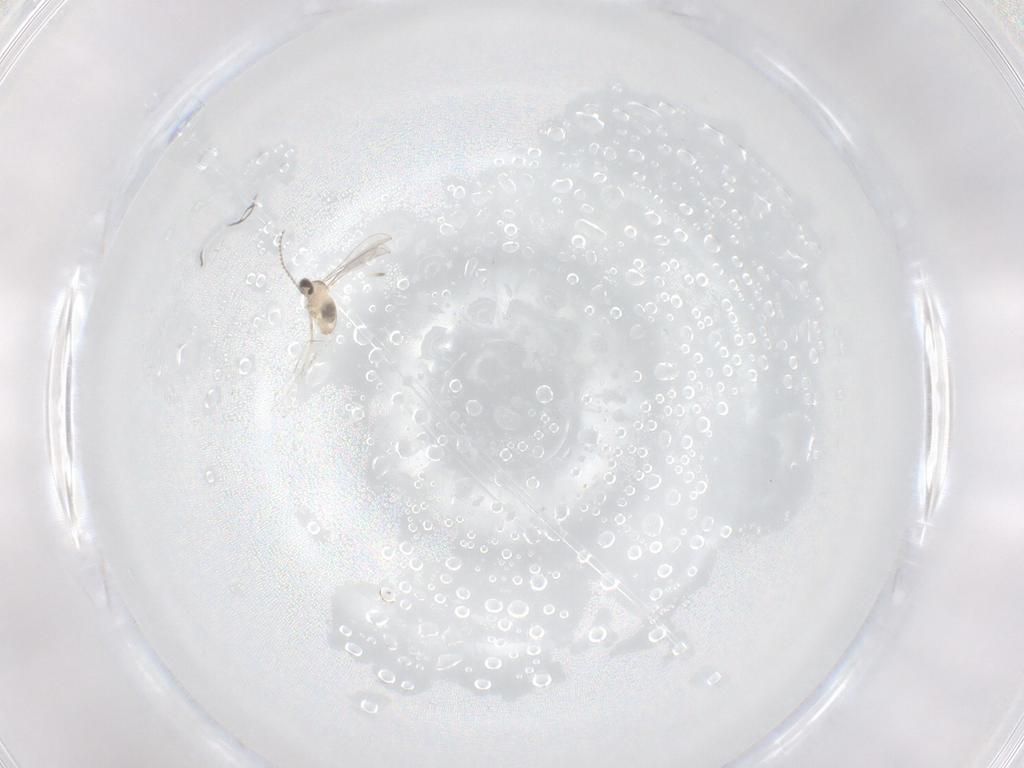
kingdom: Animalia
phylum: Arthropoda
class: Insecta
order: Diptera
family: Cecidomyiidae
